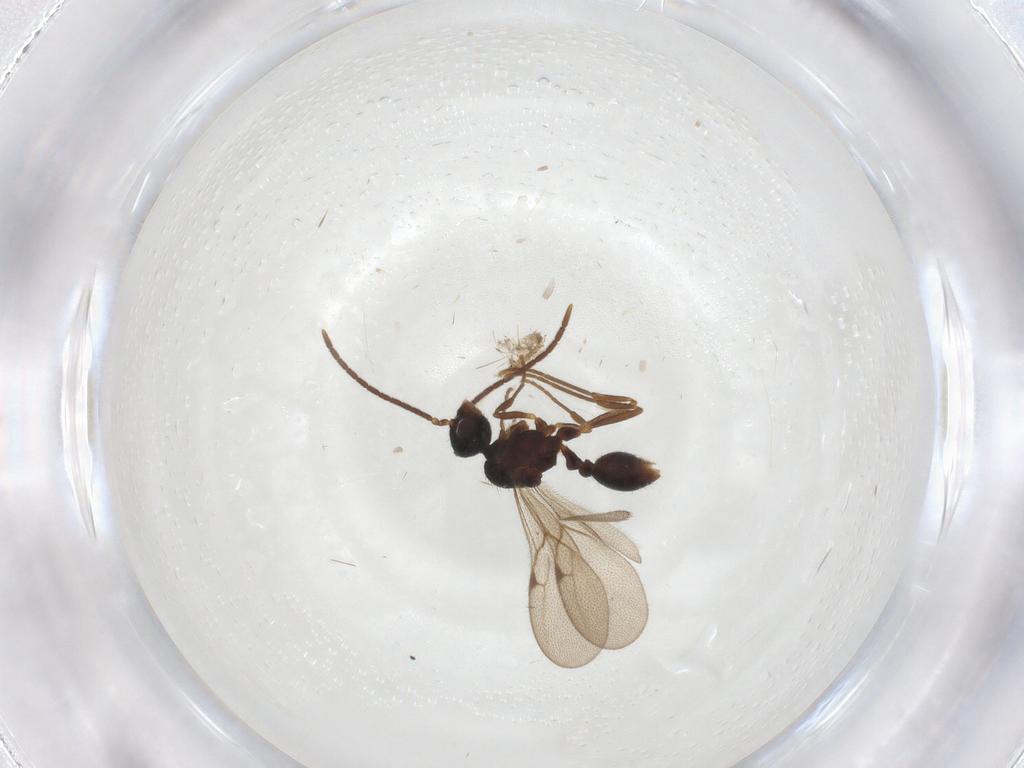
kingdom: Animalia
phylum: Arthropoda
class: Insecta
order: Hymenoptera
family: Formicidae
